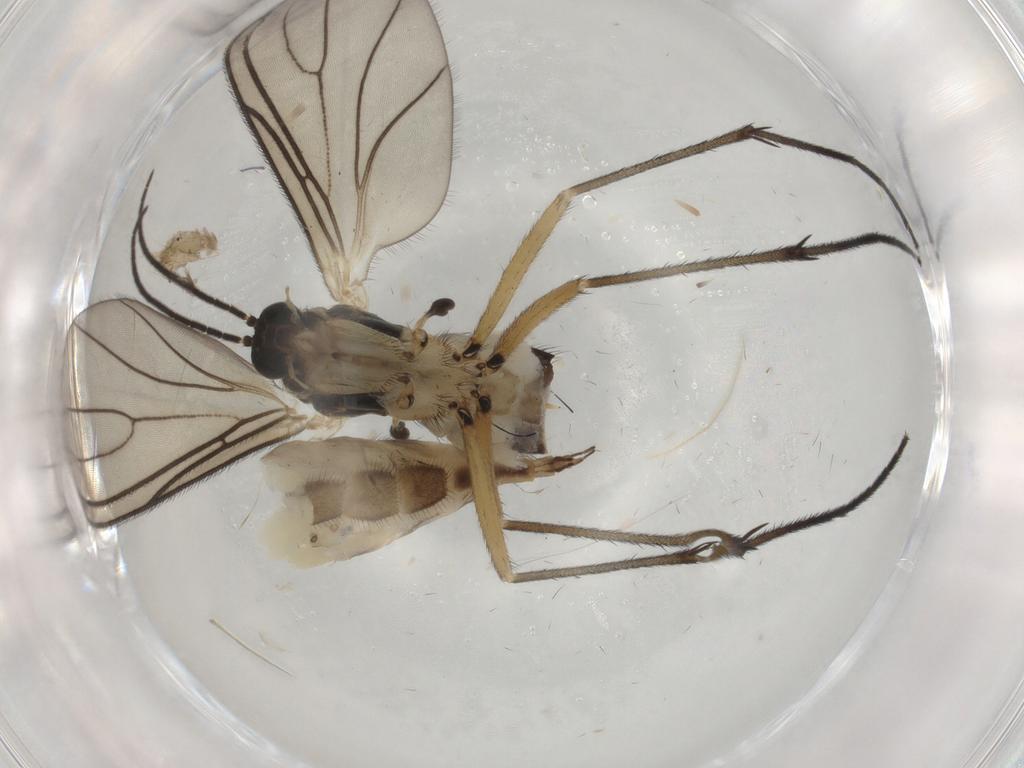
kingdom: Animalia
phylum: Arthropoda
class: Insecta
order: Diptera
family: Sciaridae
